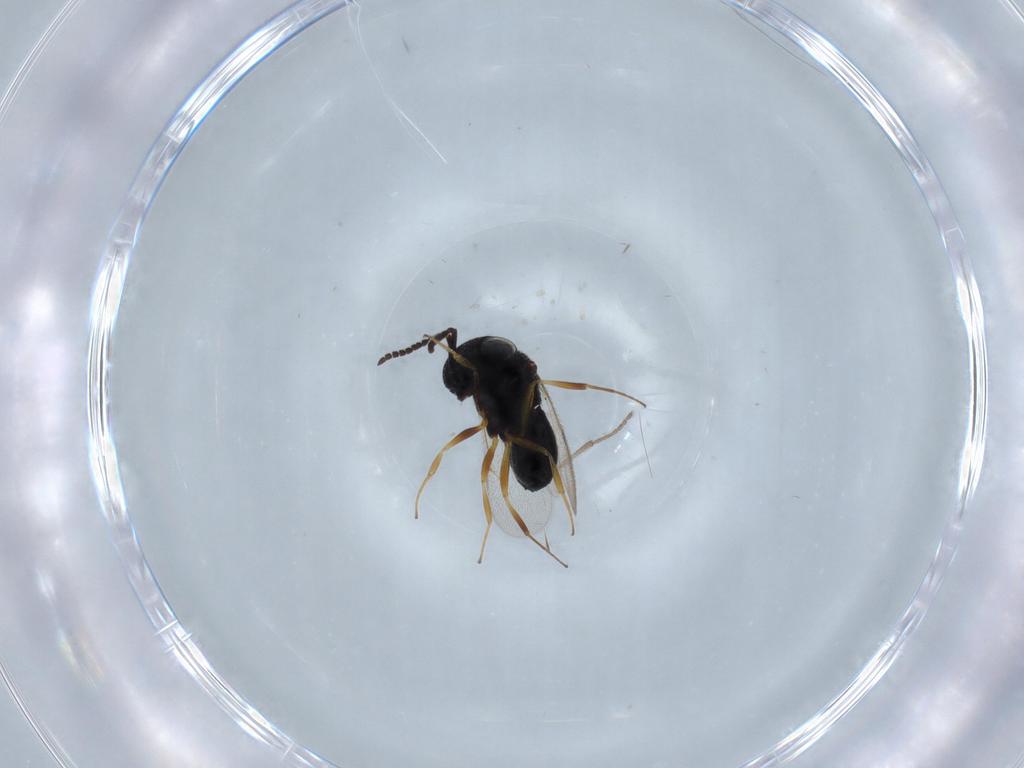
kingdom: Animalia
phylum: Arthropoda
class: Insecta
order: Hymenoptera
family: Scelionidae
